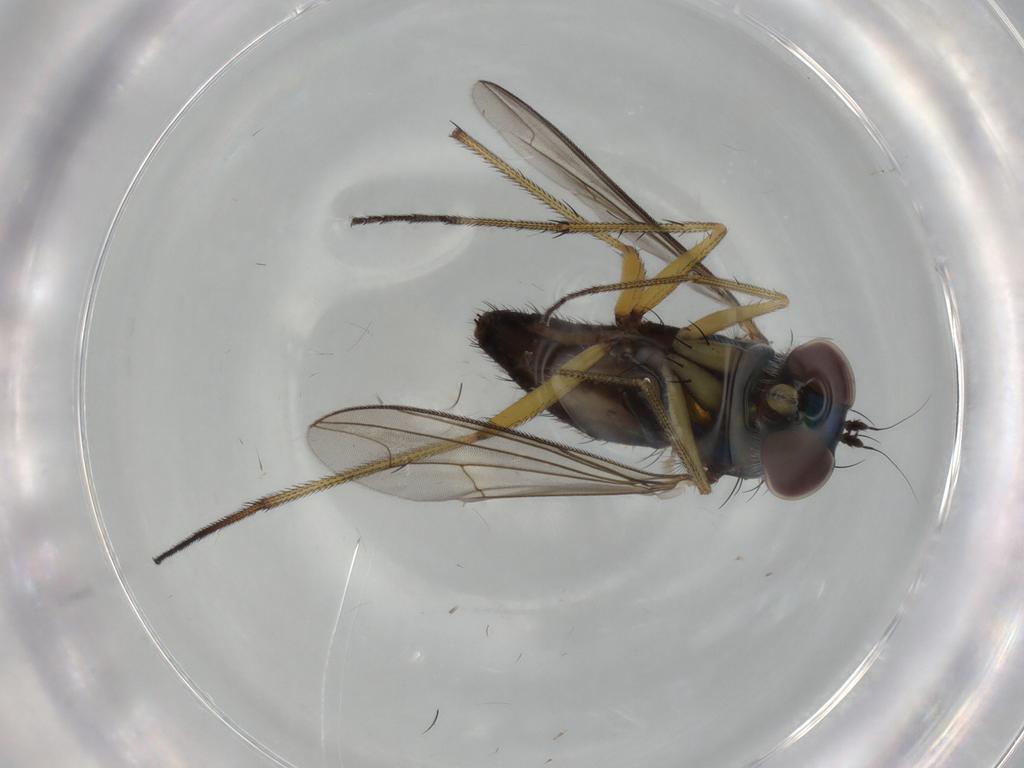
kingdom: Animalia
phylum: Arthropoda
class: Insecta
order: Diptera
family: Dolichopodidae
